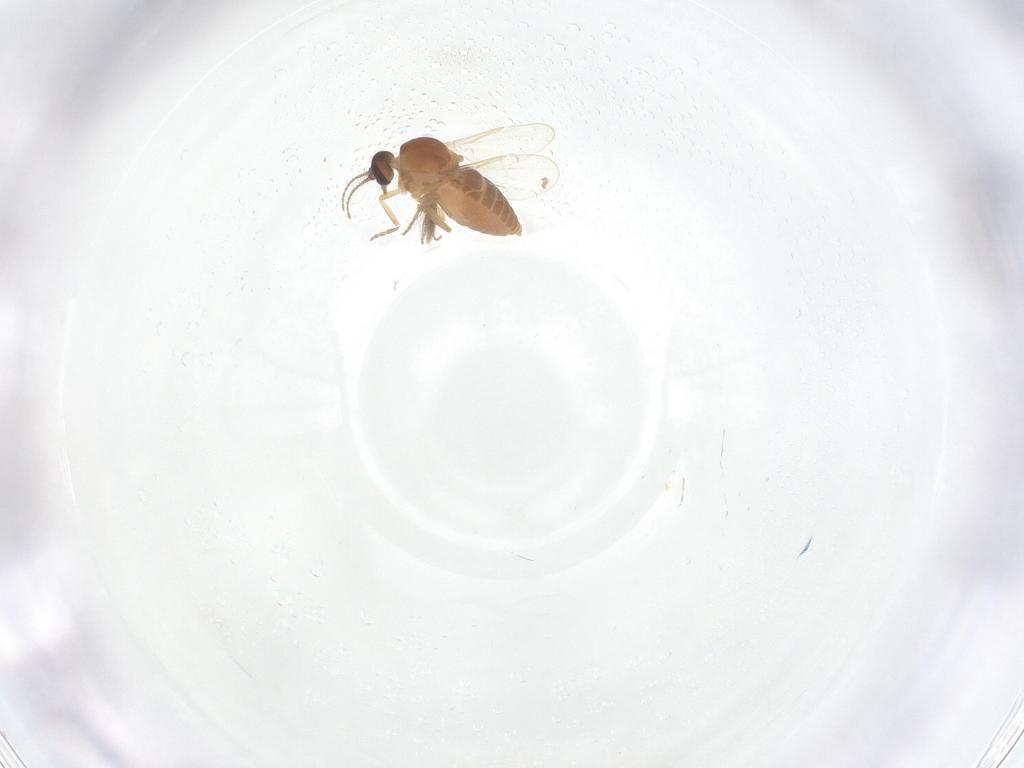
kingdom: Animalia
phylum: Arthropoda
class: Insecta
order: Diptera
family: Ceratopogonidae
